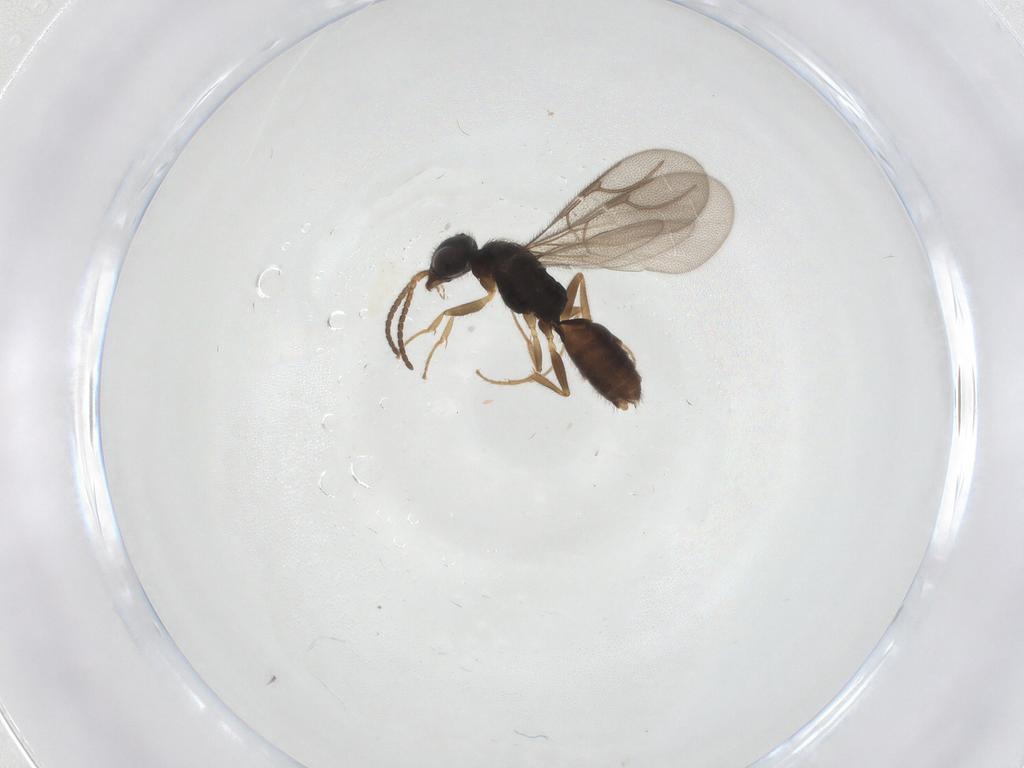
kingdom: Animalia
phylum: Arthropoda
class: Insecta
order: Hymenoptera
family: Bethylidae
